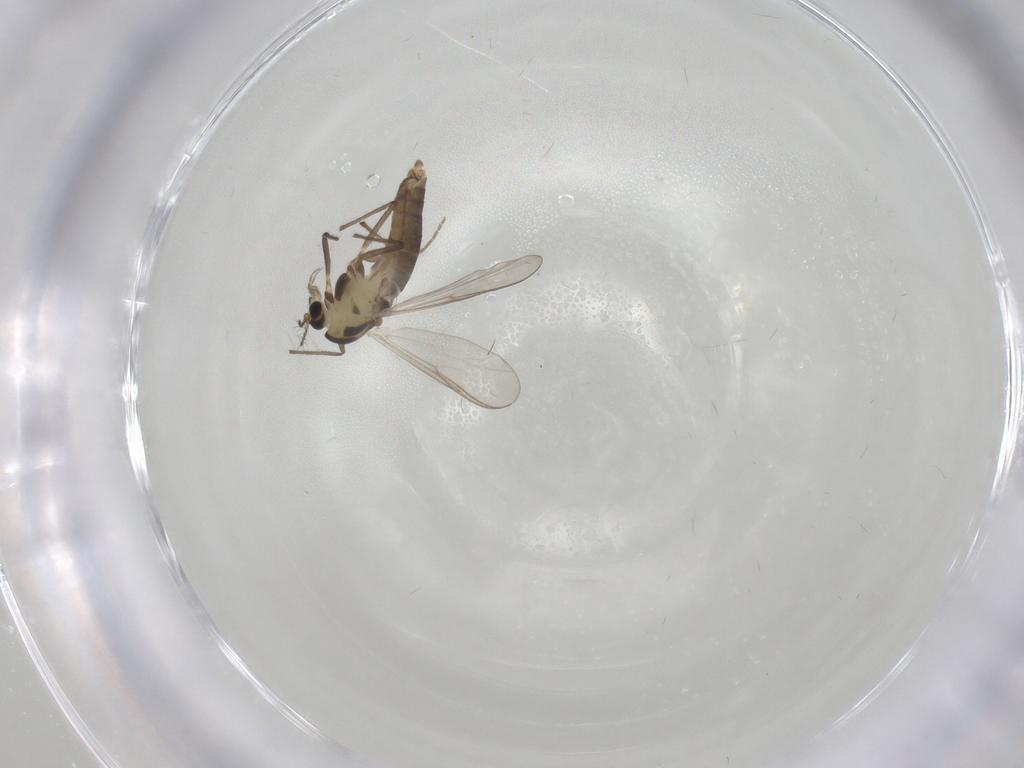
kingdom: Animalia
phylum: Arthropoda
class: Insecta
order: Diptera
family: Chironomidae
